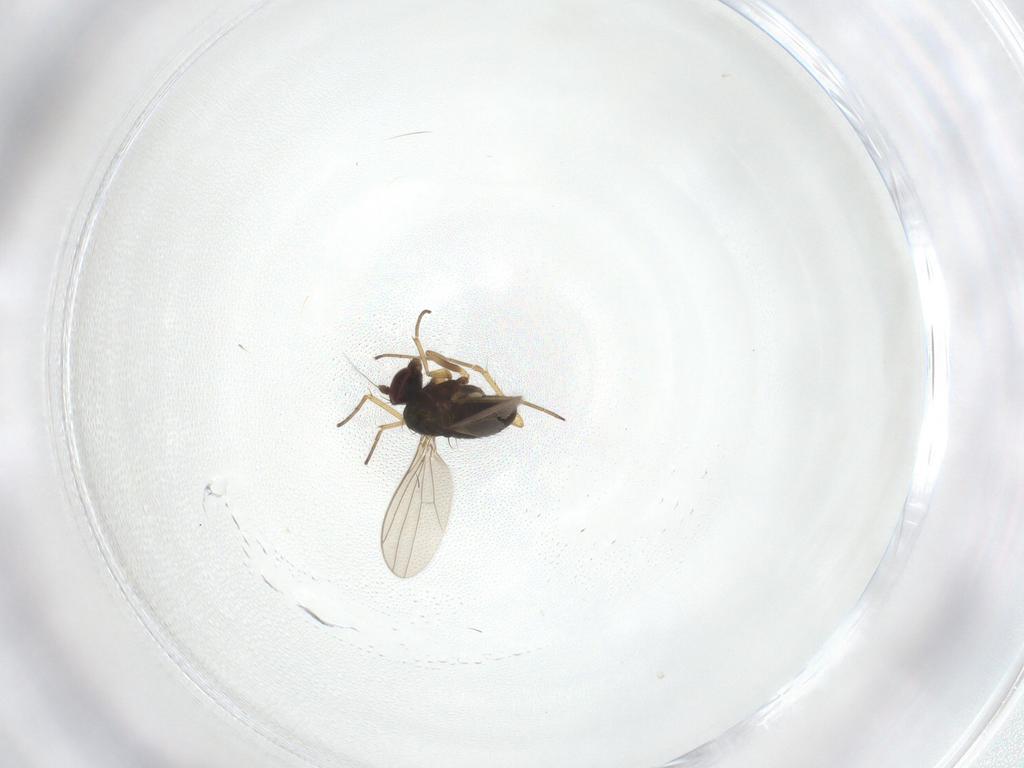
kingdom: Animalia
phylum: Arthropoda
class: Insecta
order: Diptera
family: Dolichopodidae
